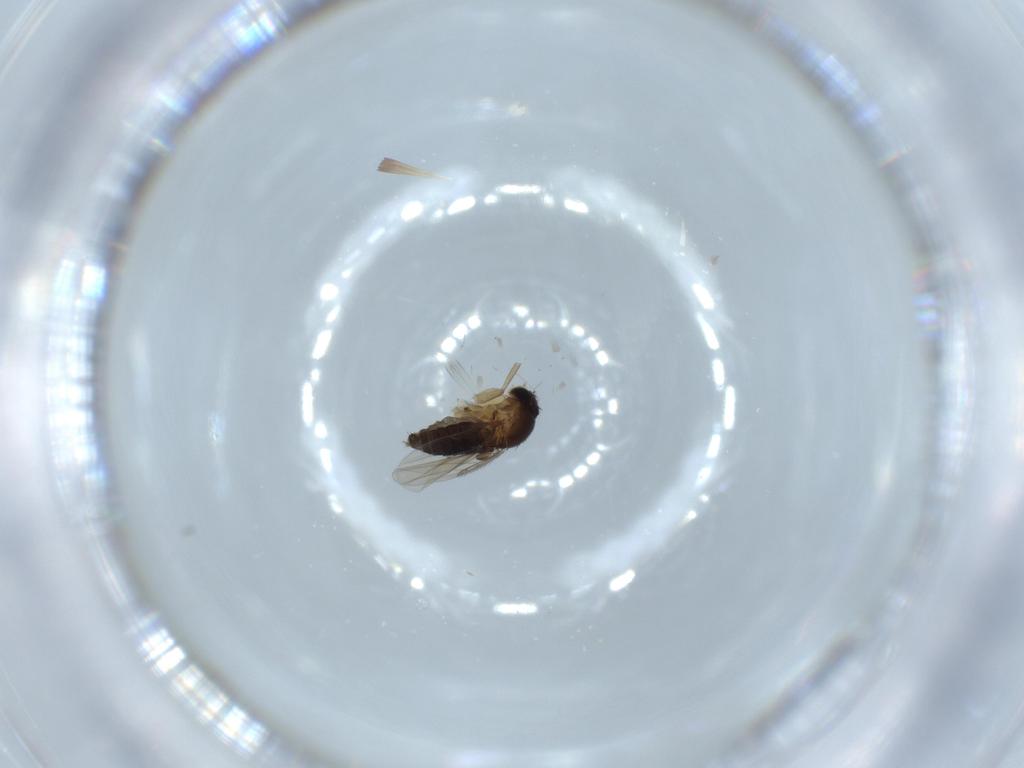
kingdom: Animalia
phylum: Arthropoda
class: Insecta
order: Diptera
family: Phoridae
